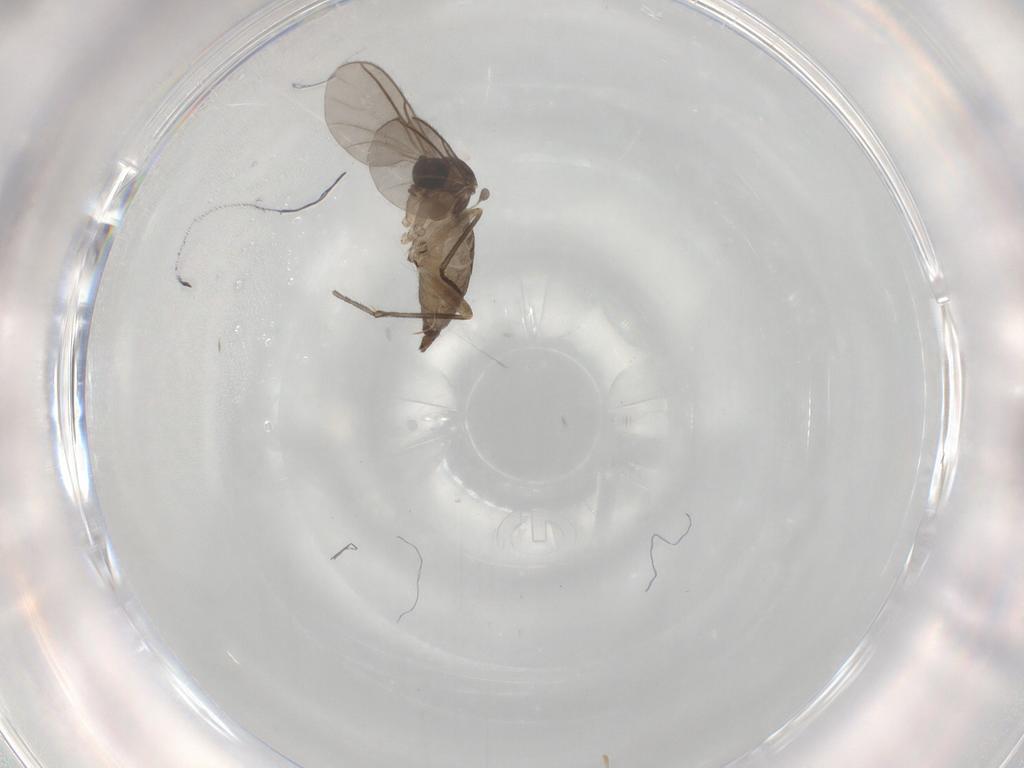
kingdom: Animalia
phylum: Arthropoda
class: Insecta
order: Diptera
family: Sciaridae
